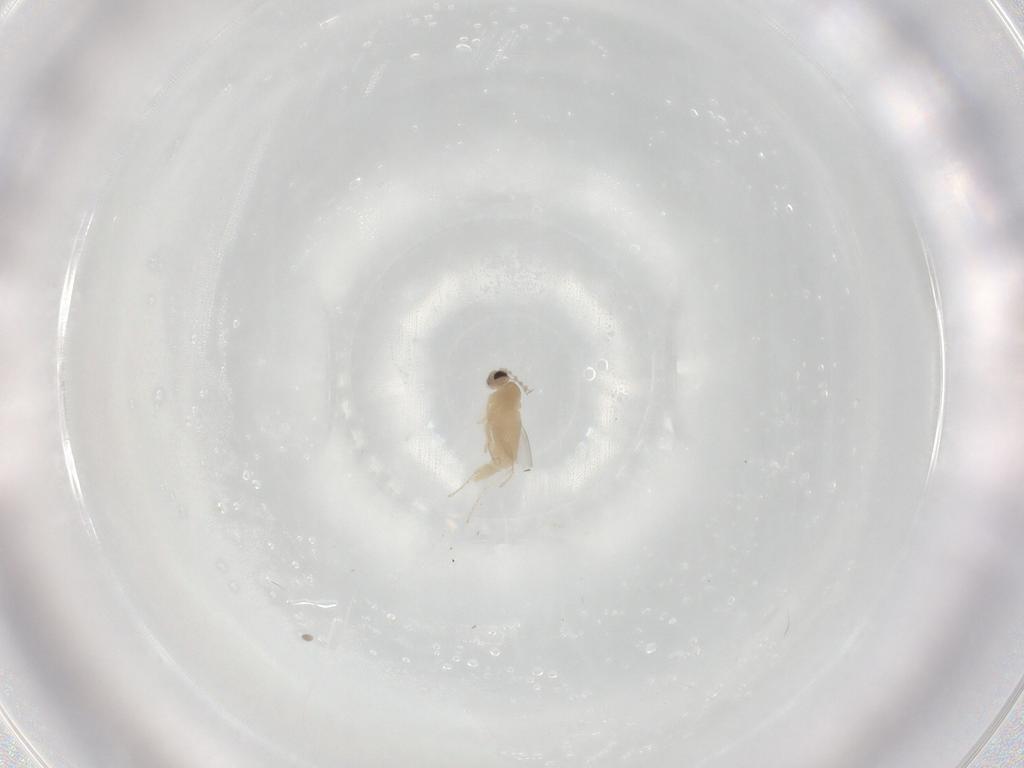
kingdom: Animalia
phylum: Arthropoda
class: Insecta
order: Diptera
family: Cecidomyiidae
